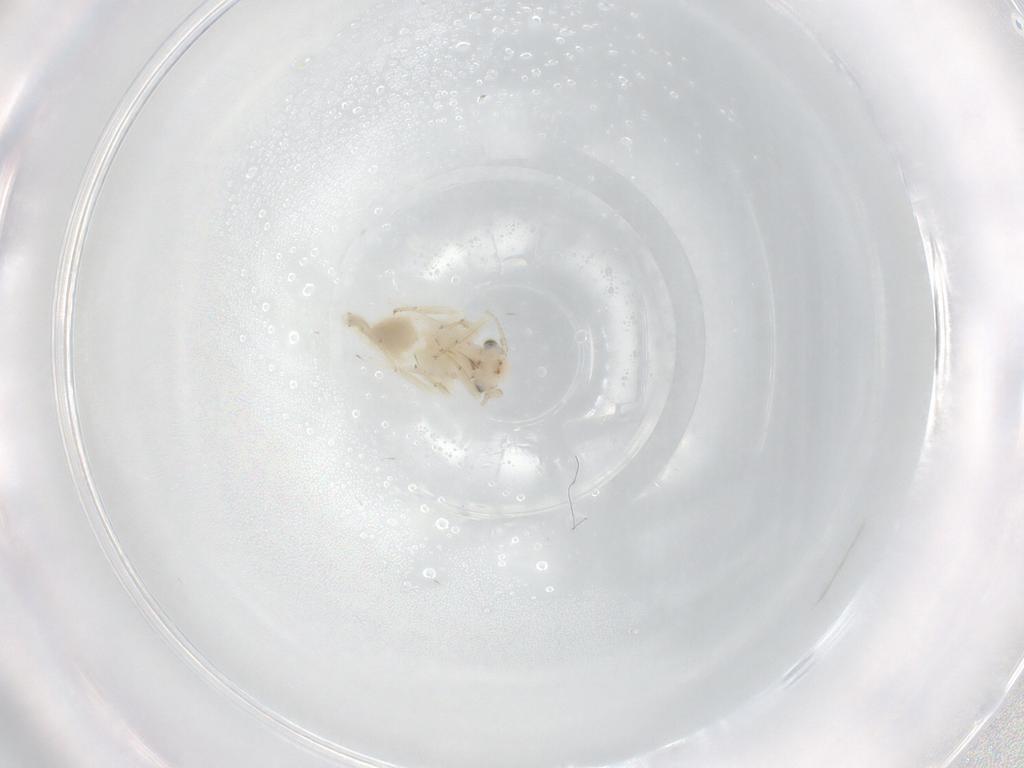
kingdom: Animalia
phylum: Arthropoda
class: Insecta
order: Psocodea
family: Lepidopsocidae
